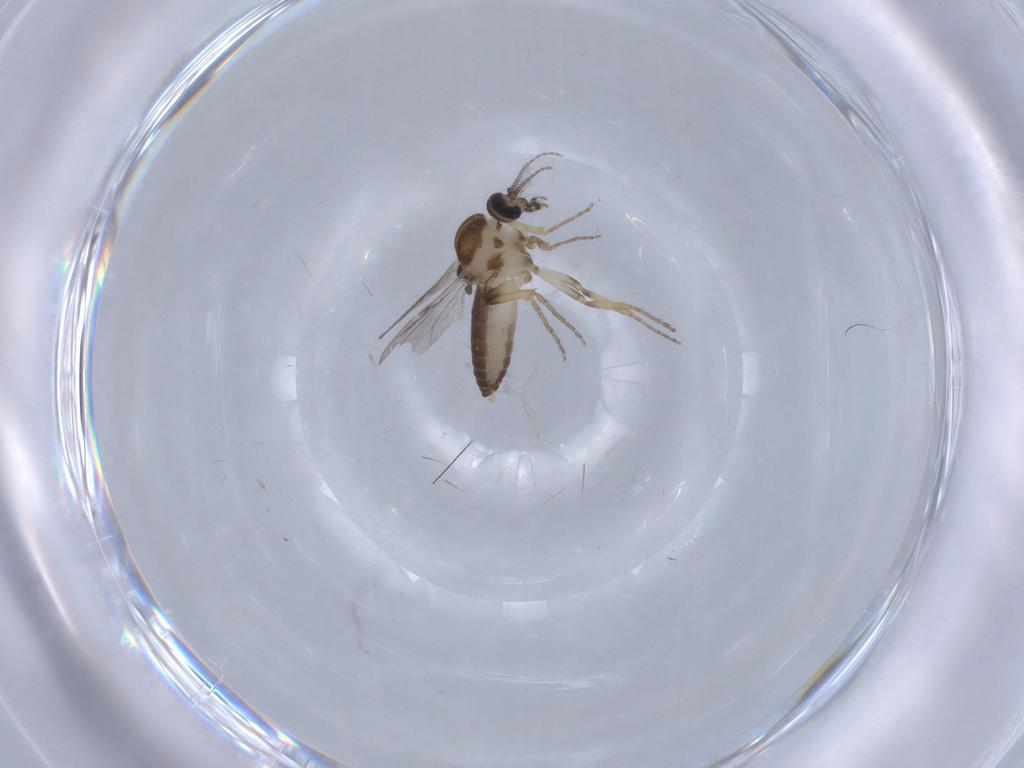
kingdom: Animalia
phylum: Arthropoda
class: Insecta
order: Diptera
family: Ceratopogonidae
